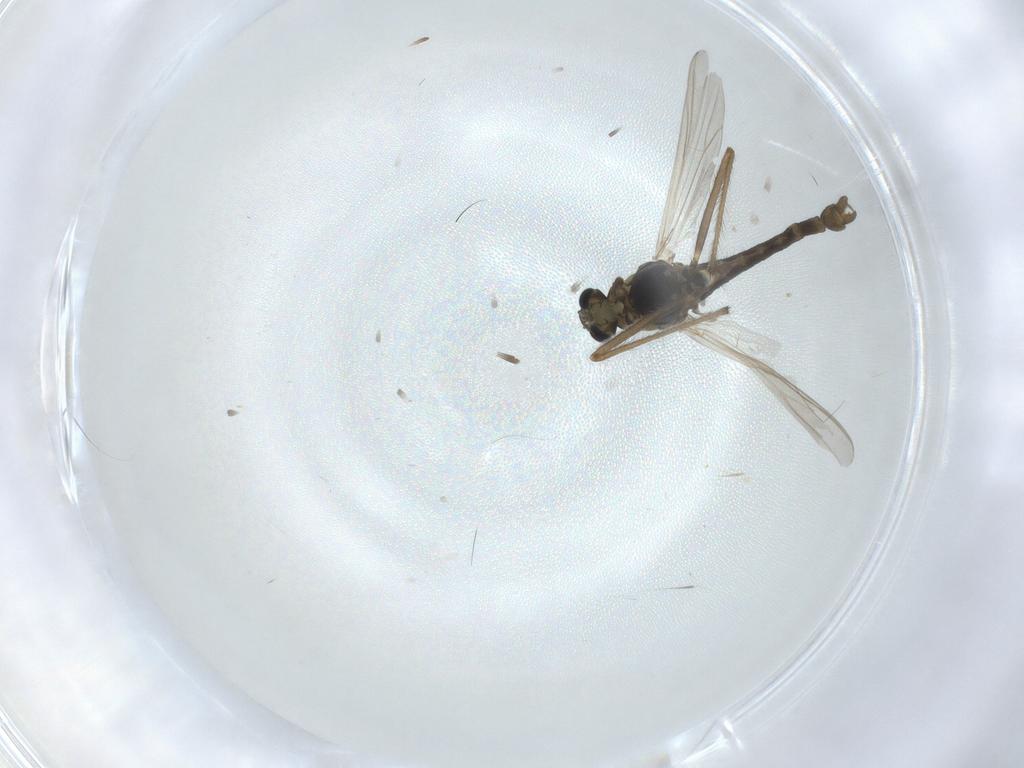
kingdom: Animalia
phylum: Arthropoda
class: Insecta
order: Diptera
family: Chironomidae
